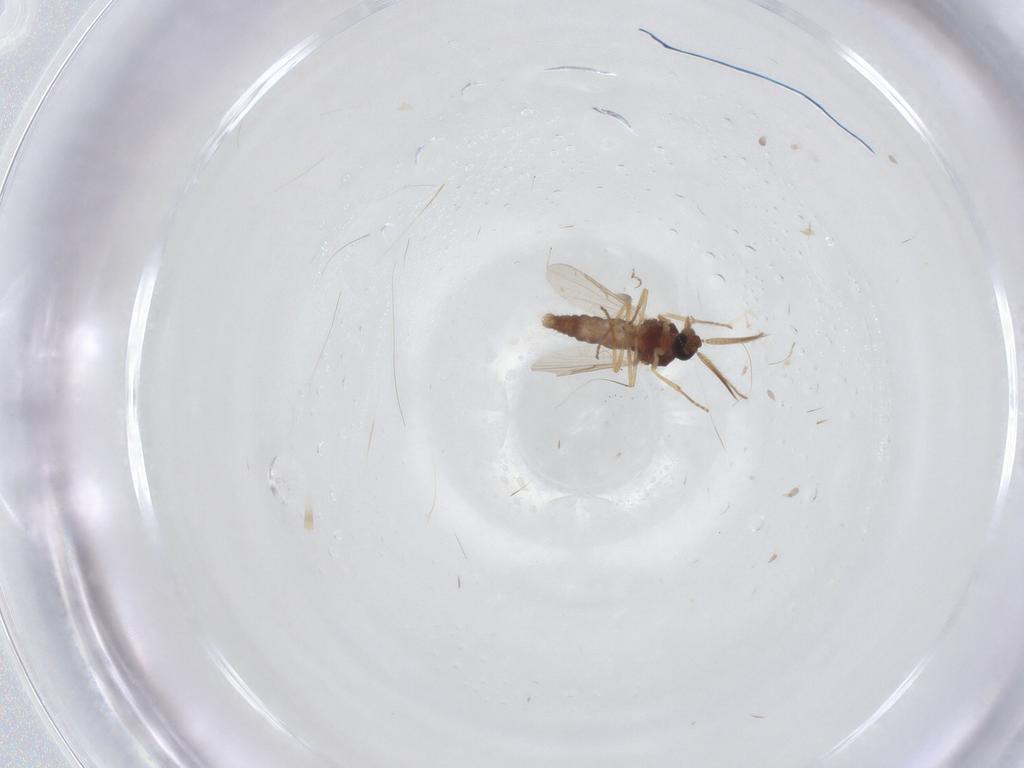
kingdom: Animalia
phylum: Arthropoda
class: Insecta
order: Diptera
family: Ceratopogonidae
